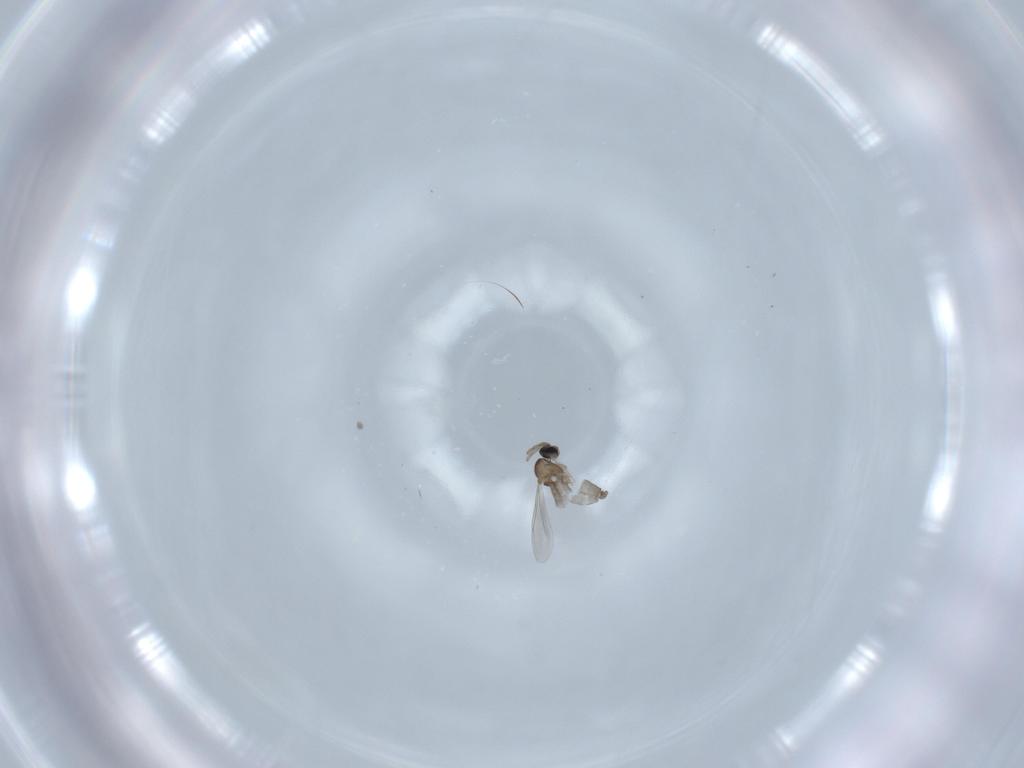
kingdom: Animalia
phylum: Arthropoda
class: Insecta
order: Diptera
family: Cecidomyiidae
